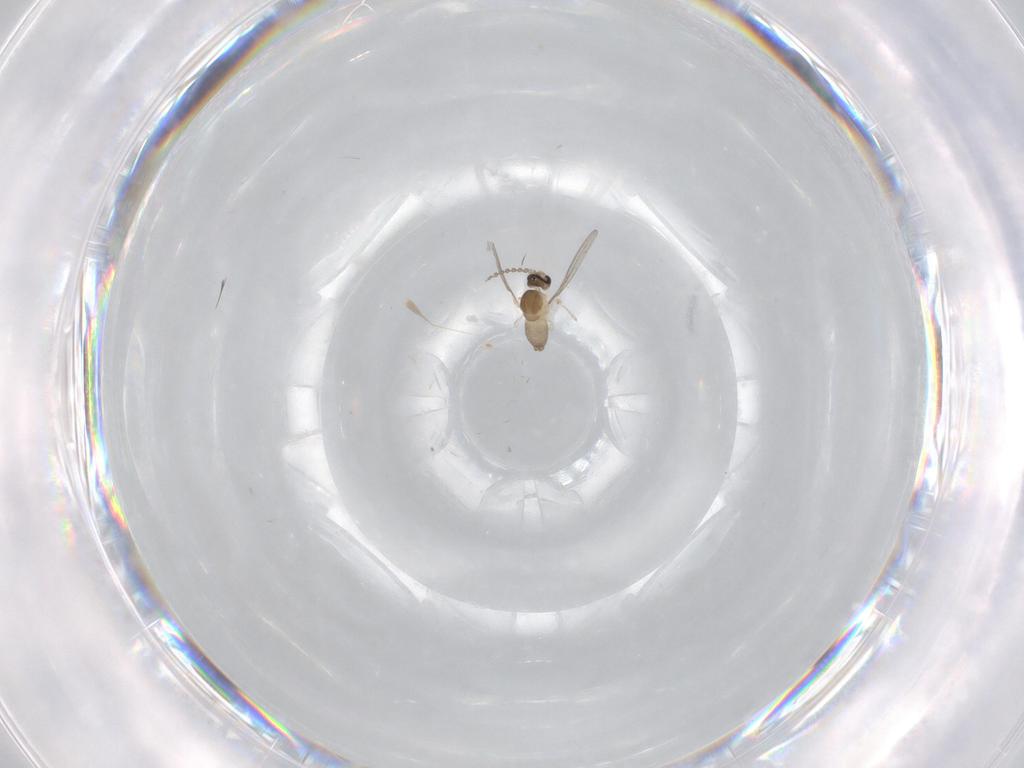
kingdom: Animalia
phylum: Arthropoda
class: Insecta
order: Diptera
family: Cecidomyiidae
